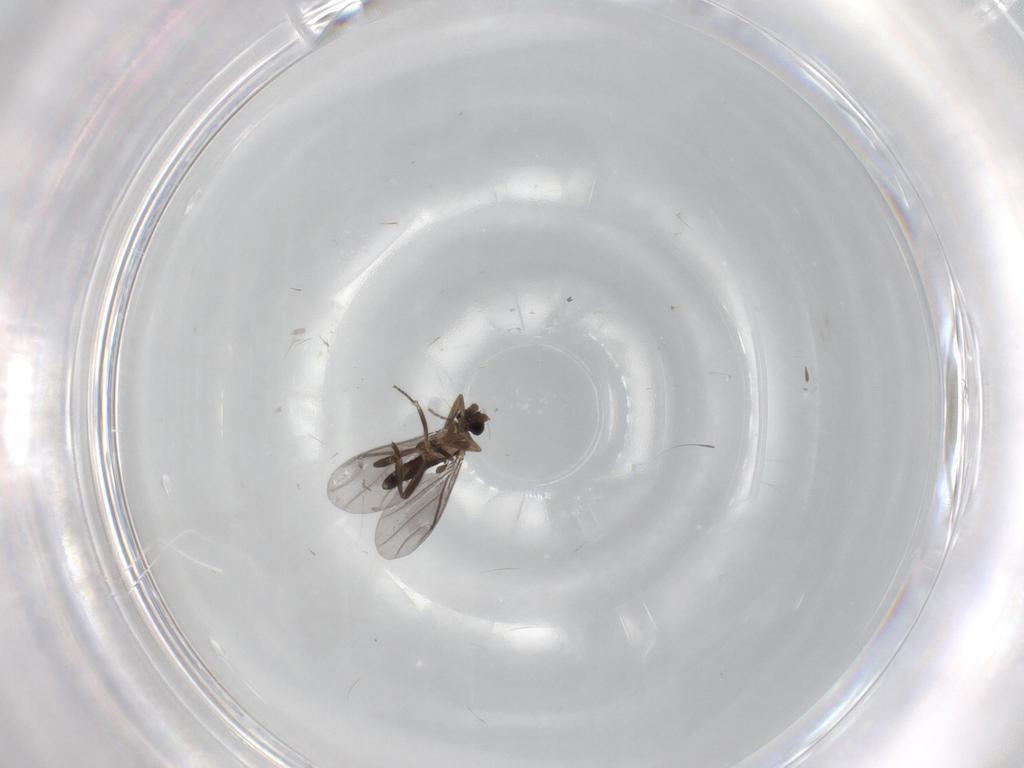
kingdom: Animalia
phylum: Arthropoda
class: Insecta
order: Diptera
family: Phoridae
